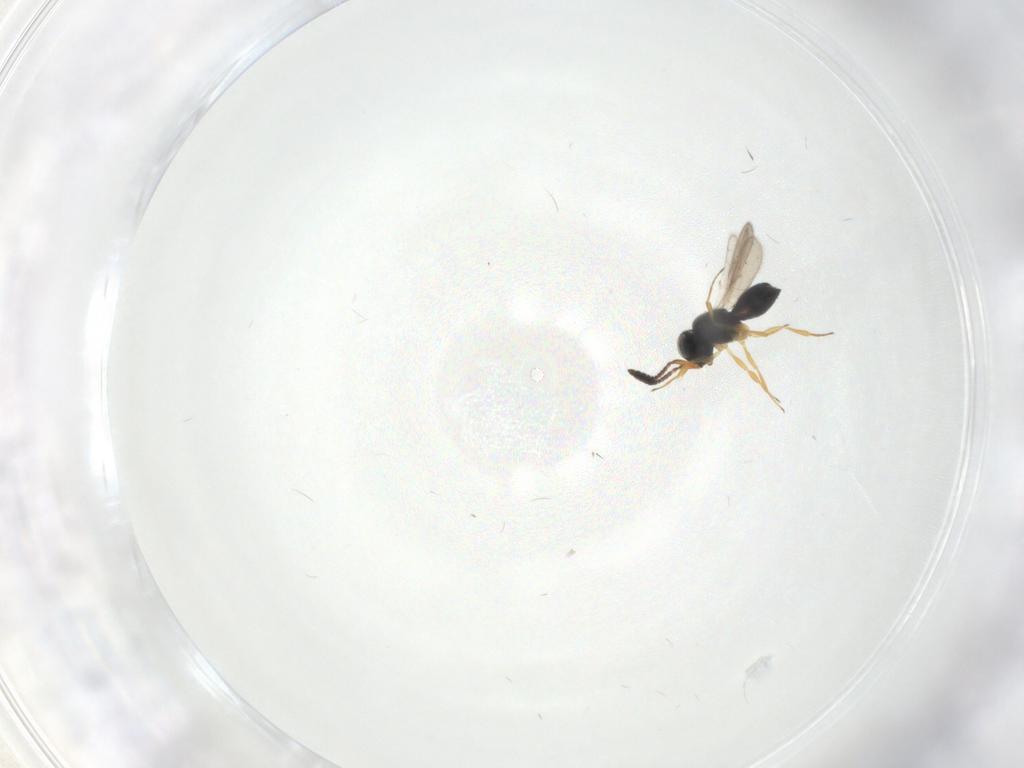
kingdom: Animalia
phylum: Arthropoda
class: Insecta
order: Hymenoptera
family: Scelionidae
